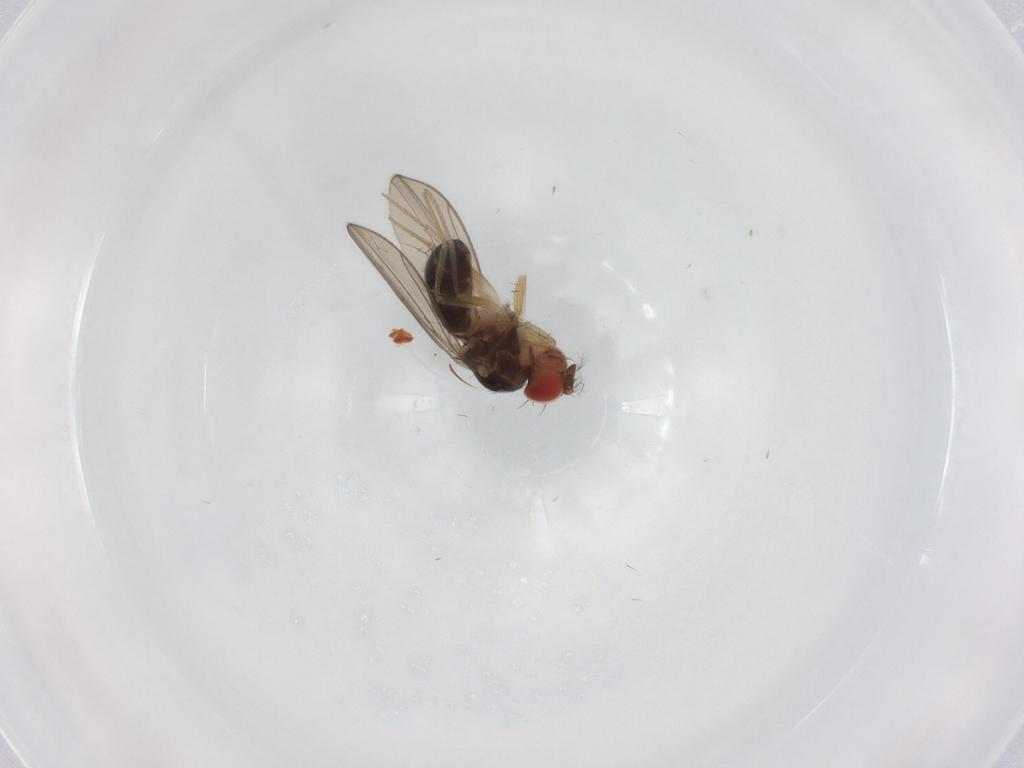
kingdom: Animalia
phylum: Arthropoda
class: Insecta
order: Diptera
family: Drosophilidae
